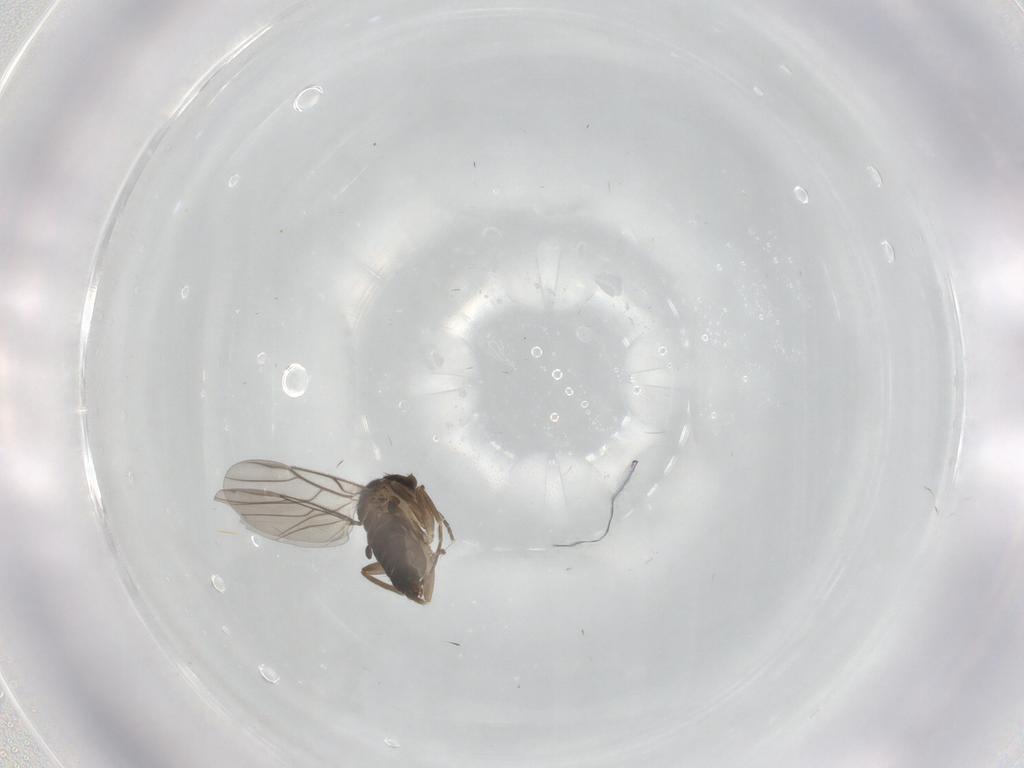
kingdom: Animalia
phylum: Arthropoda
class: Insecta
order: Diptera
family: Phoridae
